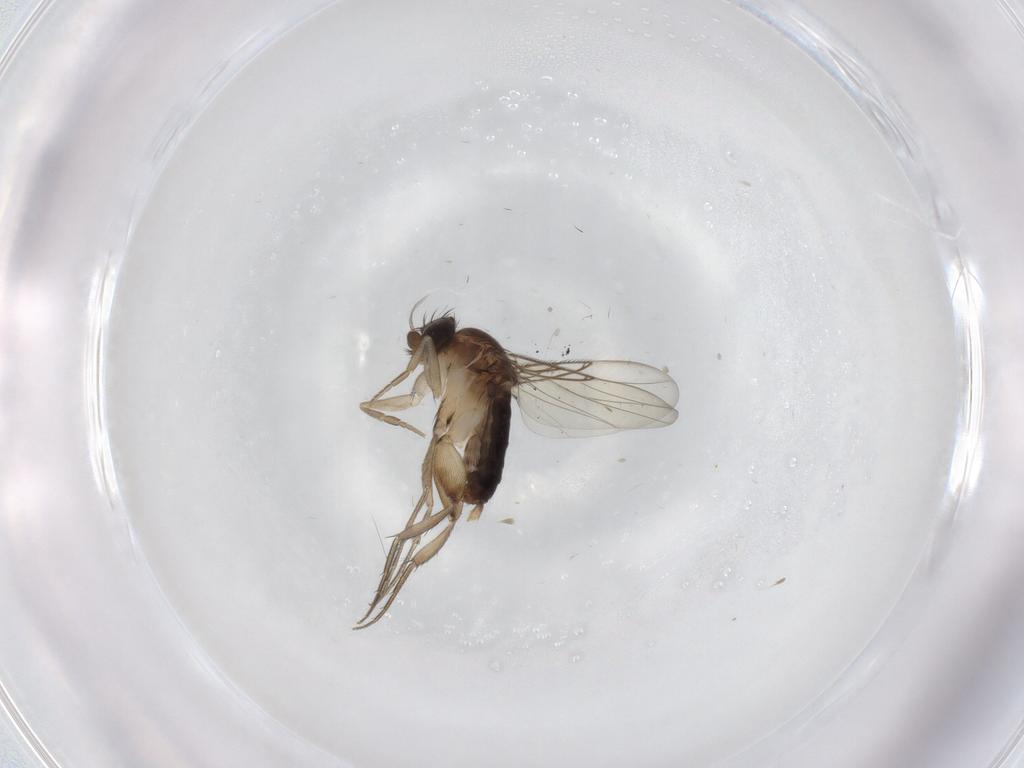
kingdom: Animalia
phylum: Arthropoda
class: Insecta
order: Diptera
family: Phoridae
